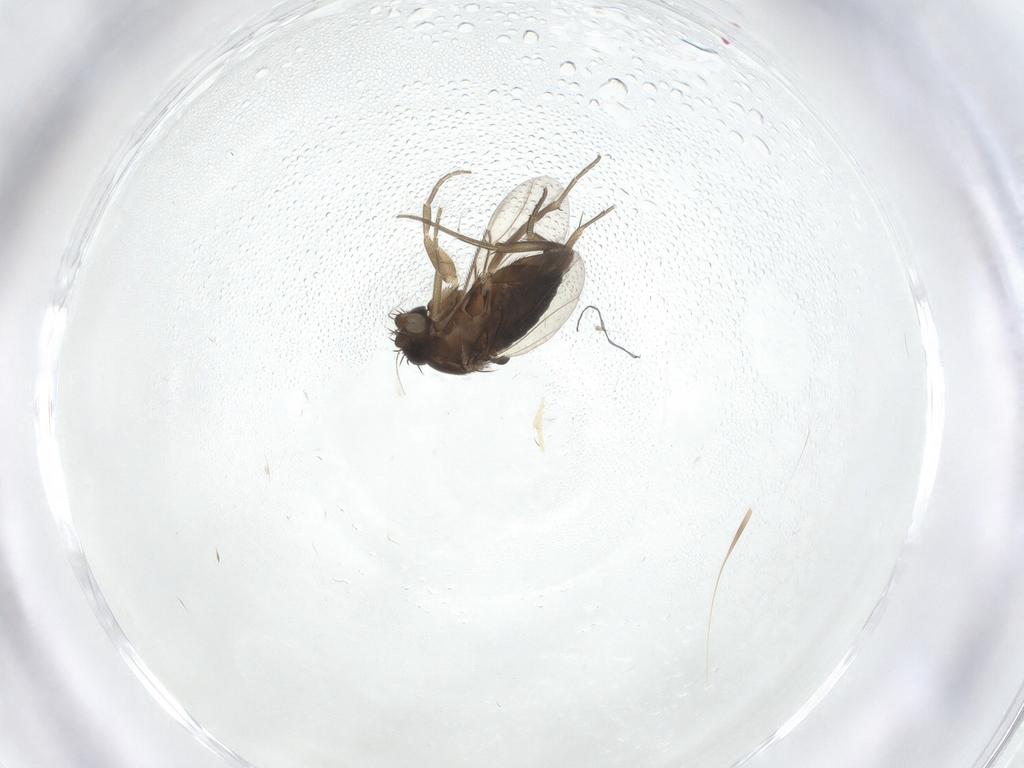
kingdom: Animalia
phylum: Arthropoda
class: Insecta
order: Diptera
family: Phoridae
